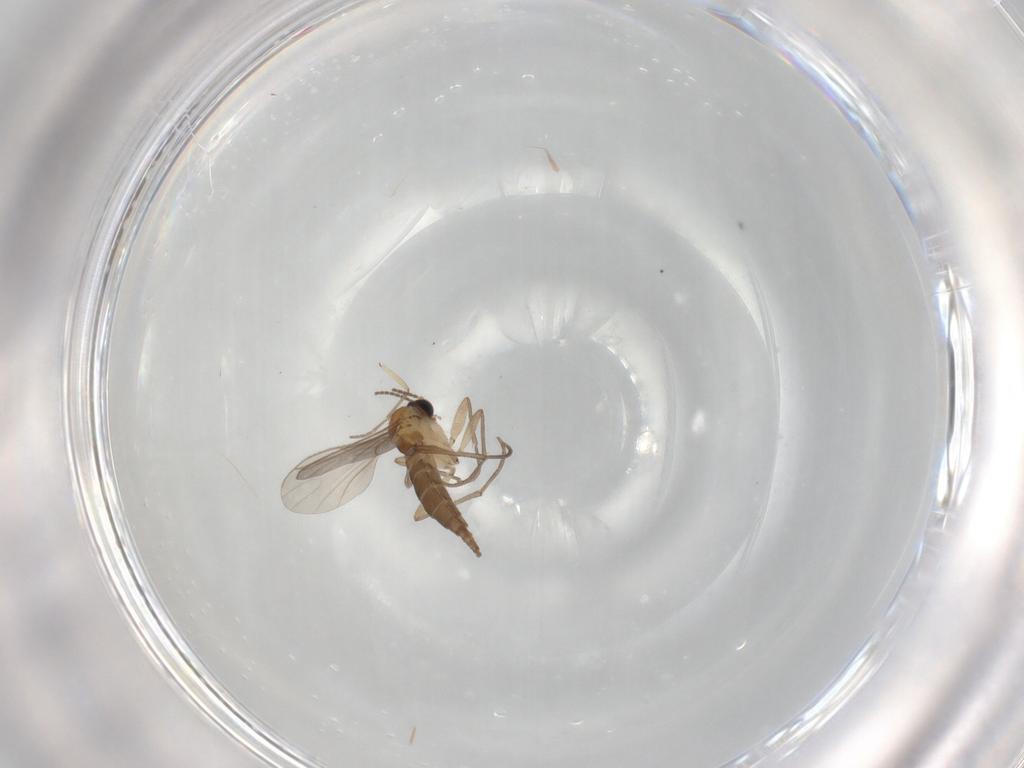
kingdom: Animalia
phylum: Arthropoda
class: Insecta
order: Diptera
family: Sciaridae
